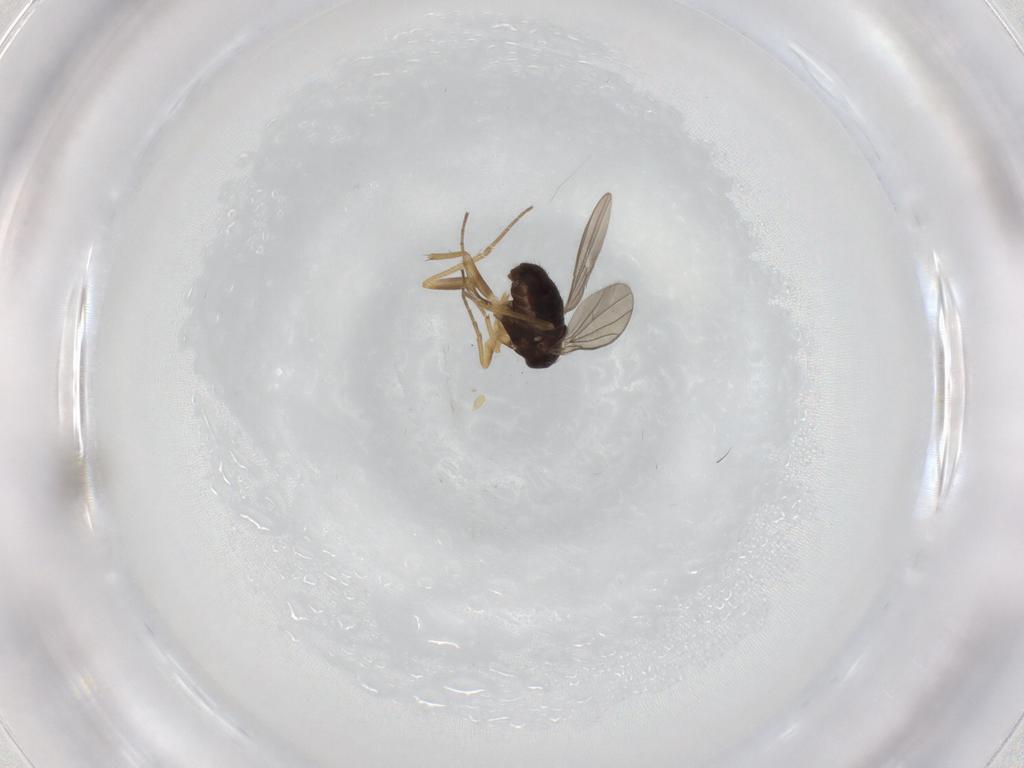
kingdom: Animalia
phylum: Arthropoda
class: Insecta
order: Diptera
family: Dolichopodidae
